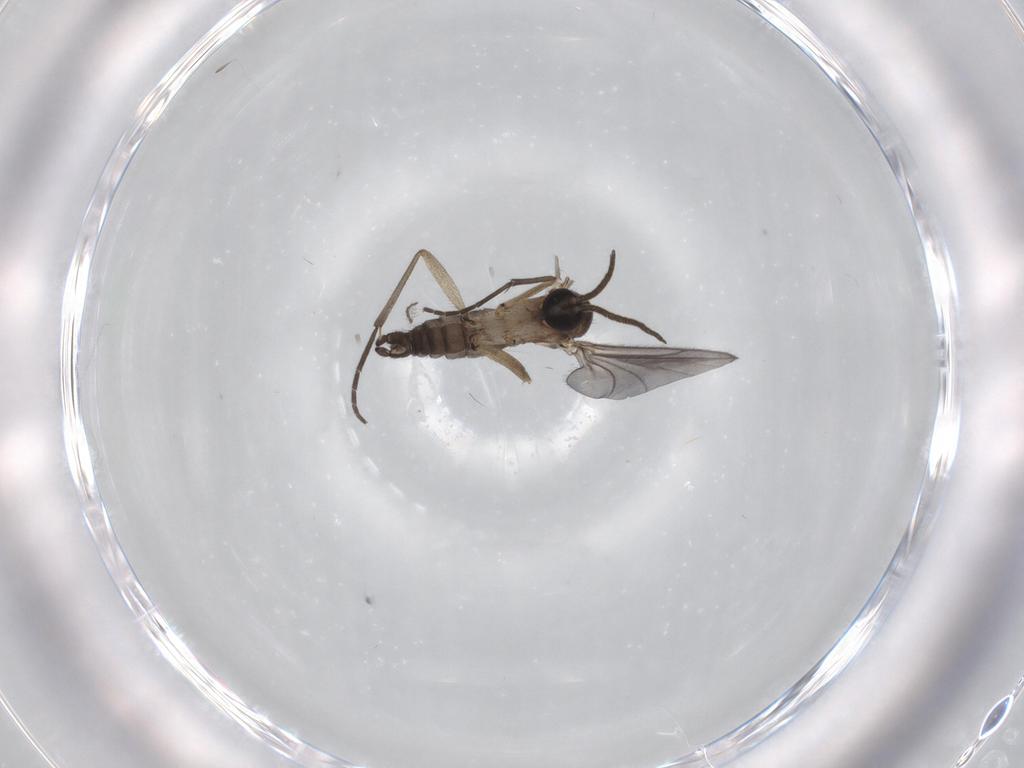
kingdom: Animalia
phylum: Arthropoda
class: Insecta
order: Diptera
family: Ceratopogonidae
